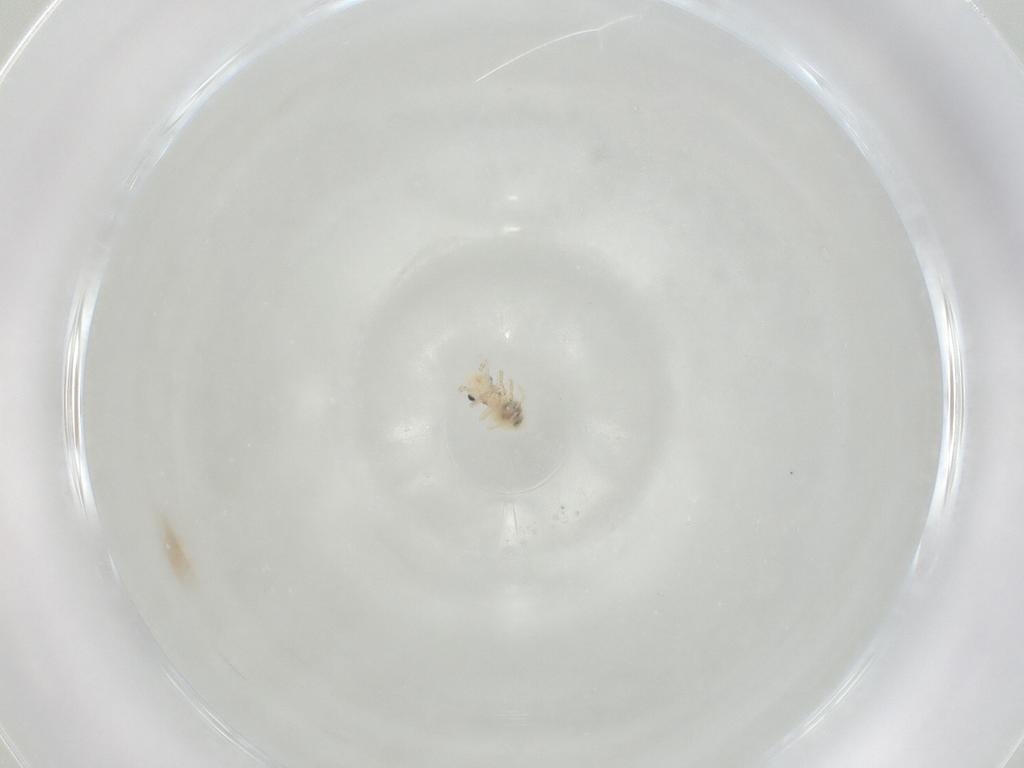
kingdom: Animalia
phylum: Arthropoda
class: Insecta
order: Psocodea
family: Caeciliusidae
